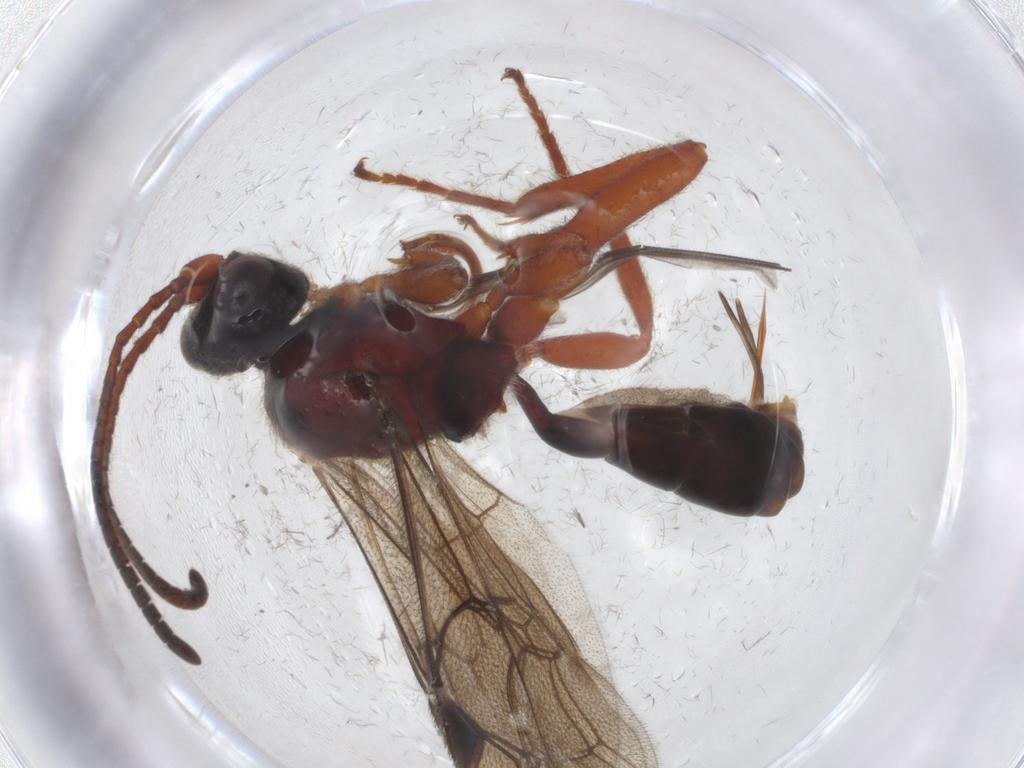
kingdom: Animalia
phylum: Arthropoda
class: Insecta
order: Hymenoptera
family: Ichneumonidae
